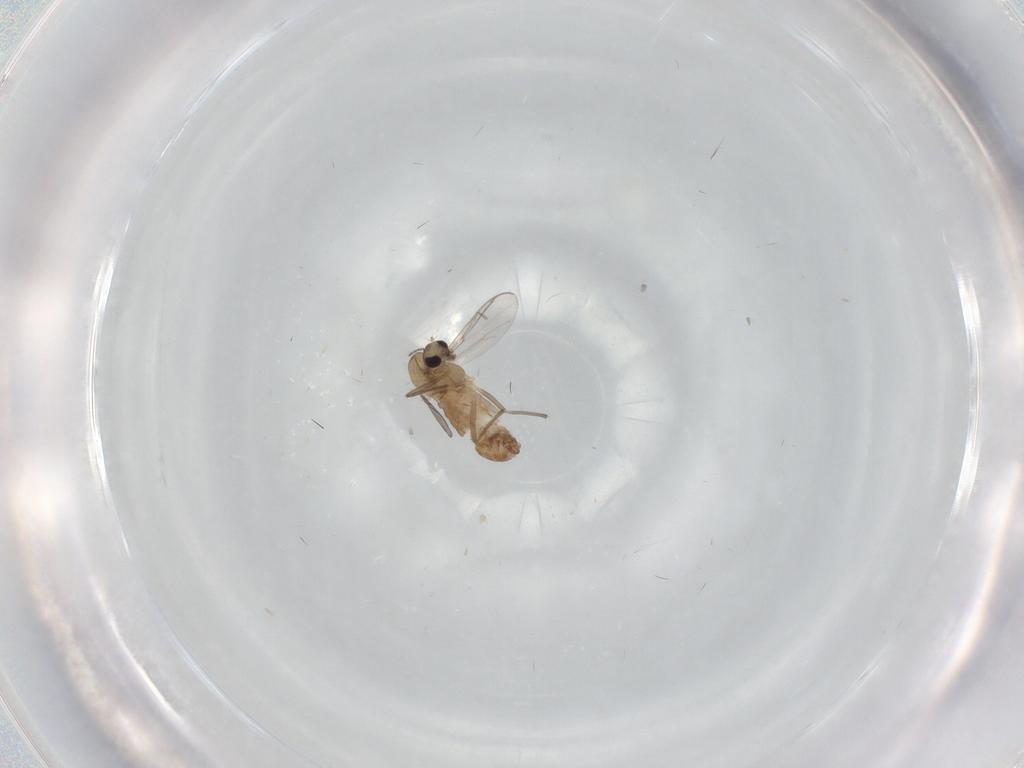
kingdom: Animalia
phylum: Arthropoda
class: Insecta
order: Diptera
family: Chironomidae
